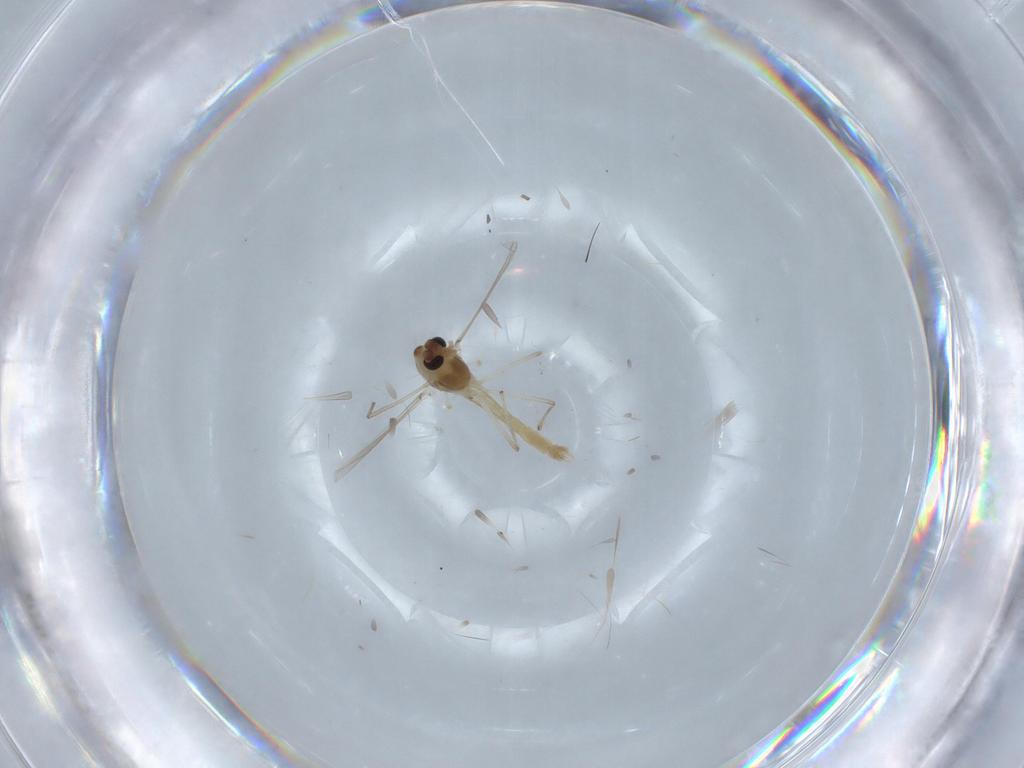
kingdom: Animalia
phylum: Arthropoda
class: Insecta
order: Diptera
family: Chironomidae
